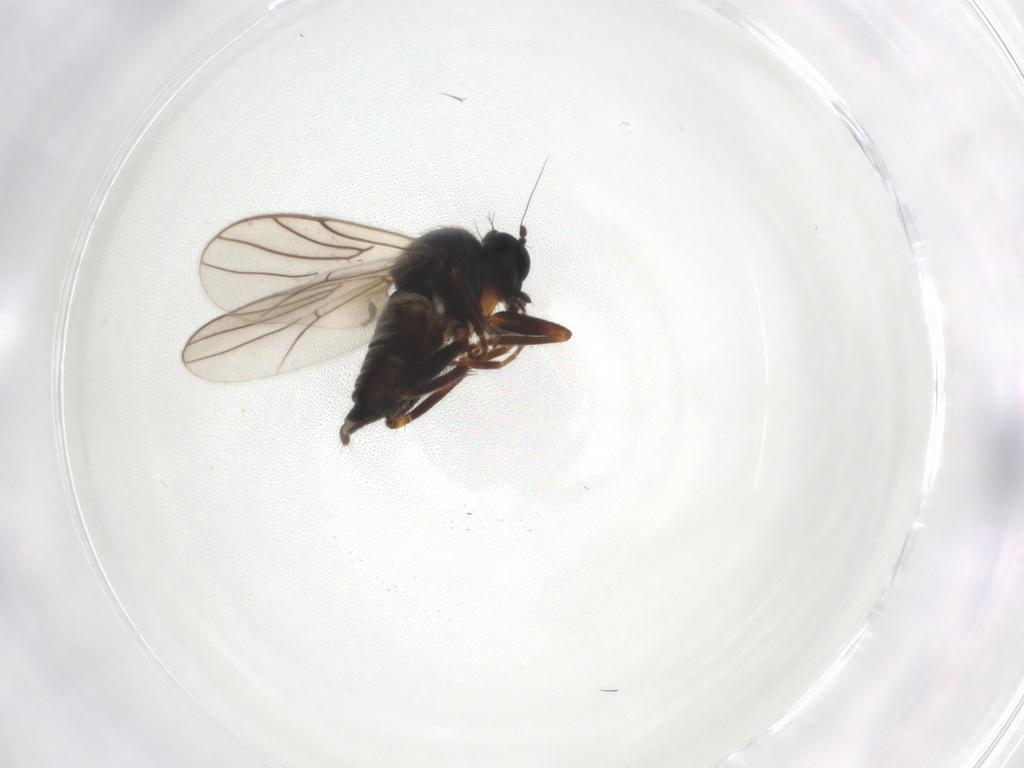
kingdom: Animalia
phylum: Arthropoda
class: Insecta
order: Diptera
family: Hybotidae
